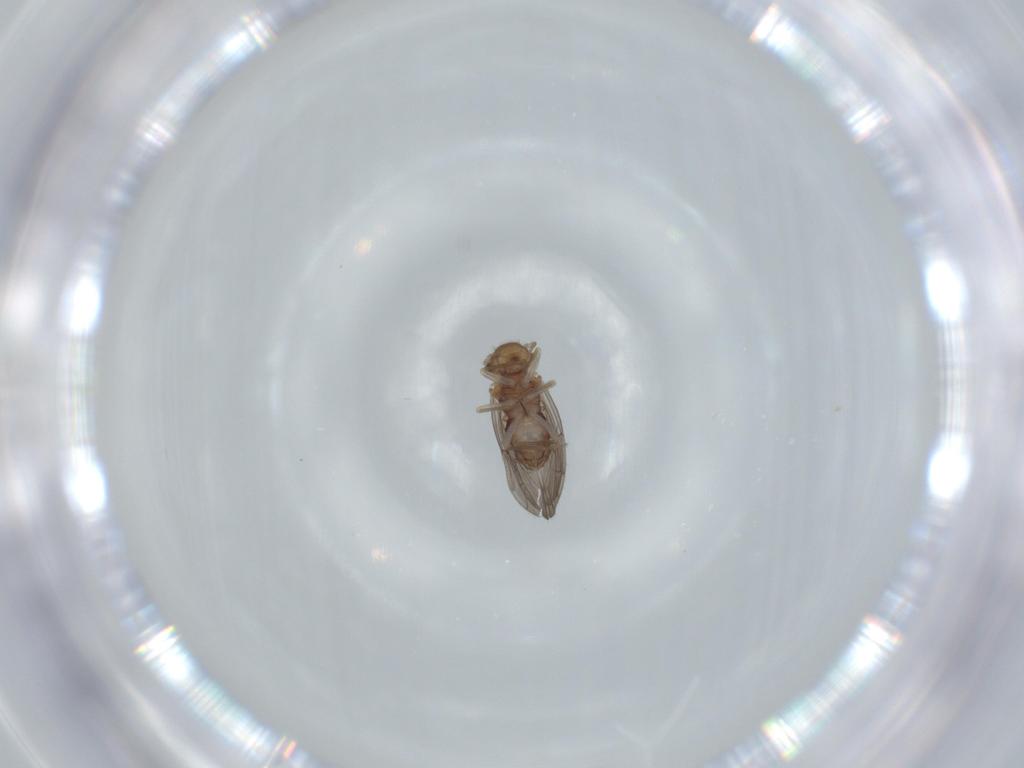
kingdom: Animalia
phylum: Arthropoda
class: Insecta
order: Psocodea
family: Ectopsocidae
